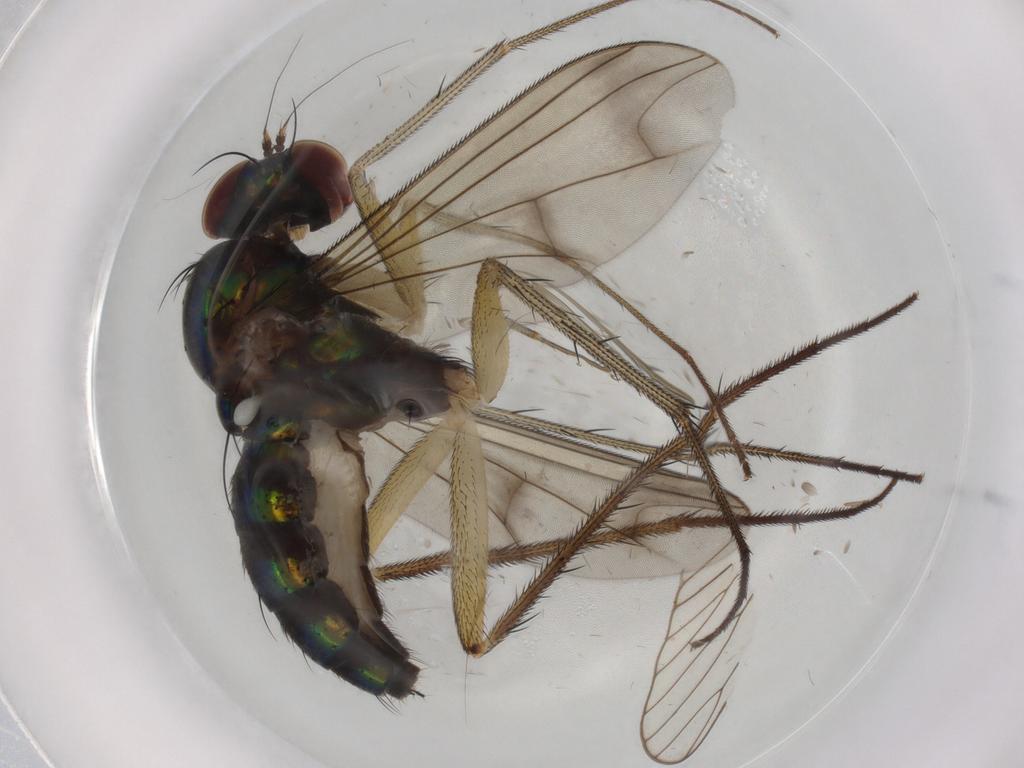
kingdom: Animalia
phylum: Arthropoda
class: Insecta
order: Diptera
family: Dolichopodidae
